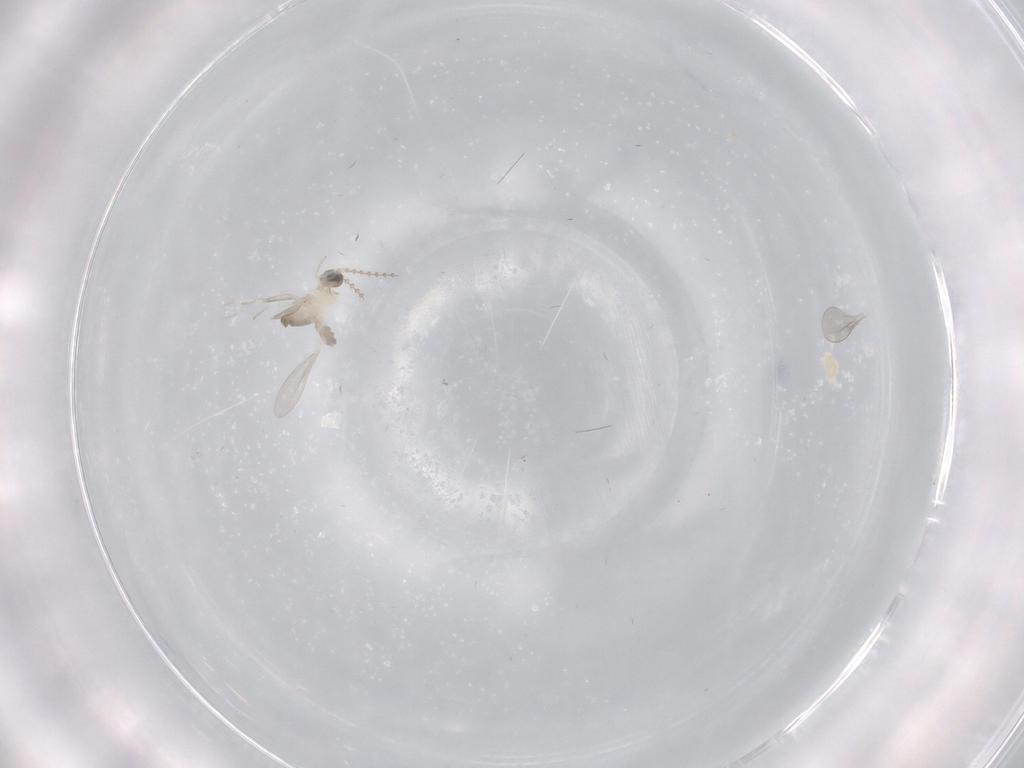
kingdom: Animalia
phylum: Arthropoda
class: Insecta
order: Diptera
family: Cecidomyiidae
